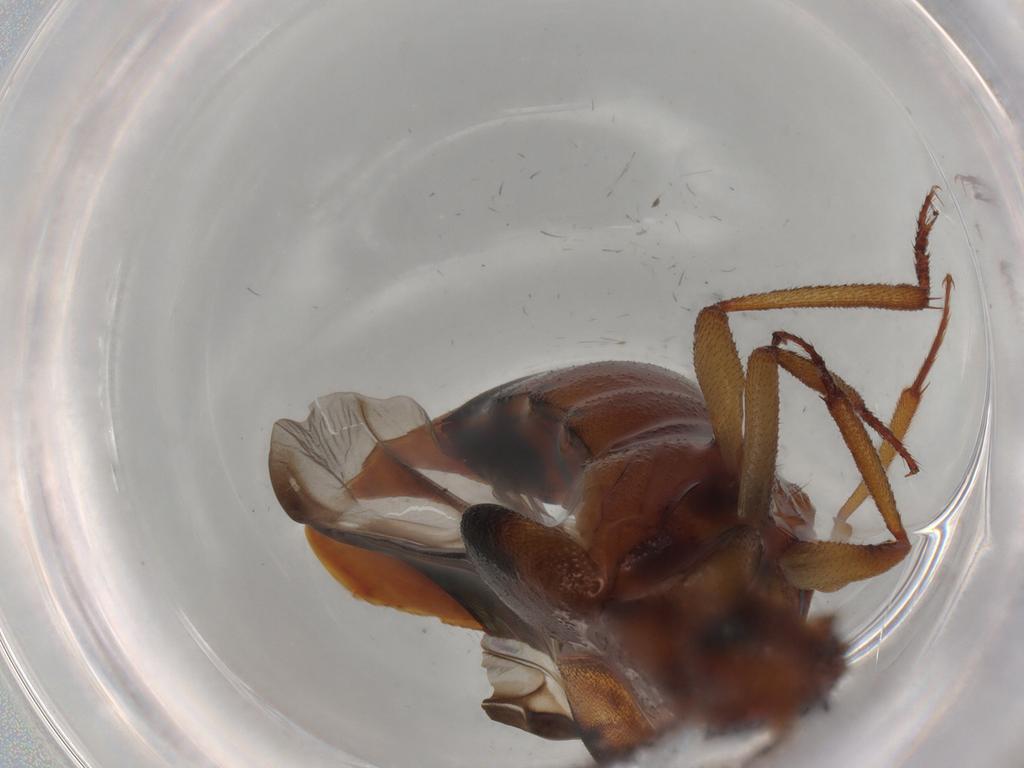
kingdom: Animalia
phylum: Arthropoda
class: Insecta
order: Coleoptera
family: Staphylinidae
